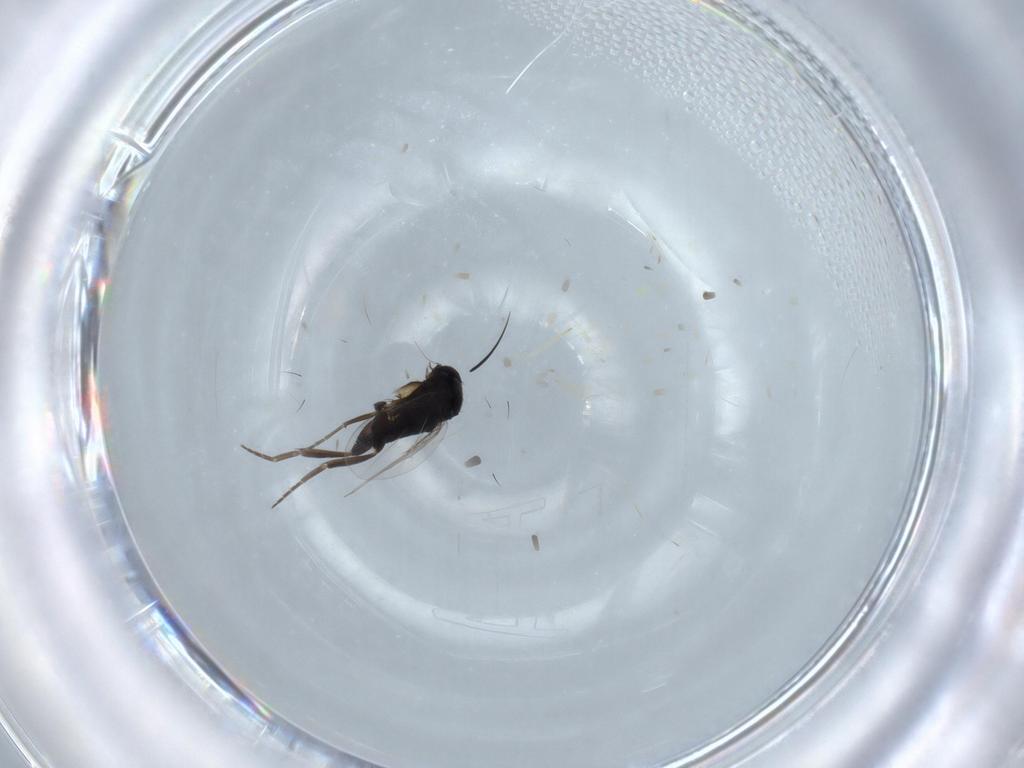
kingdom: Animalia
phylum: Arthropoda
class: Insecta
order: Diptera
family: Phoridae
